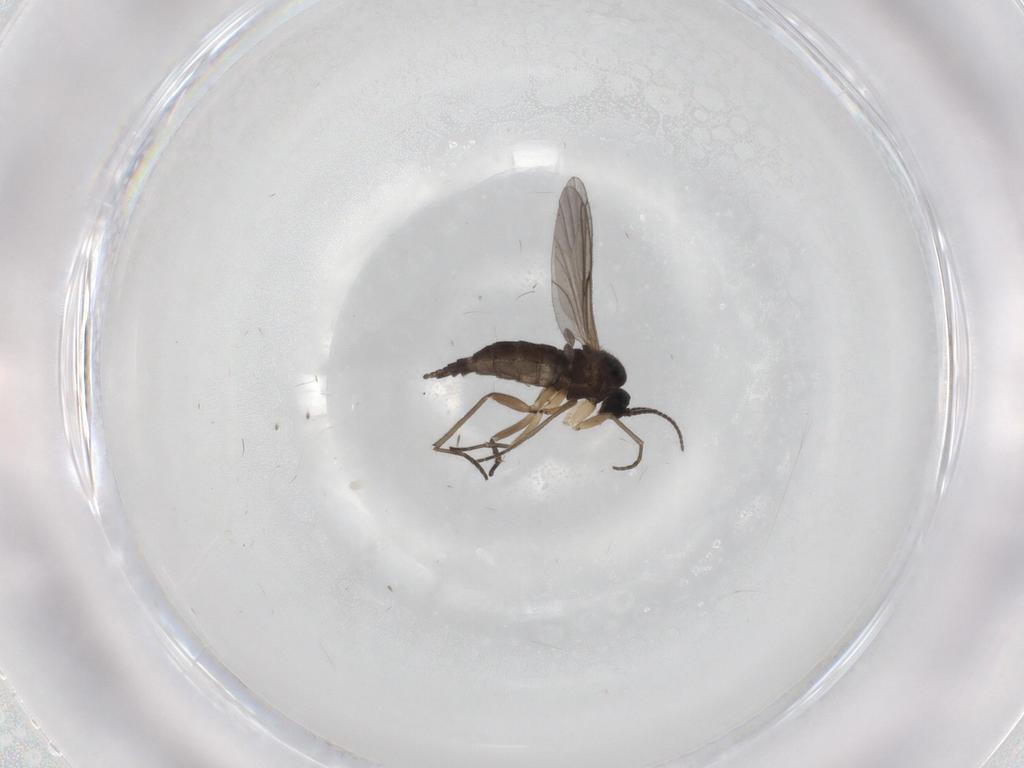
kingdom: Animalia
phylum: Arthropoda
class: Insecta
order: Diptera
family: Sciaridae
